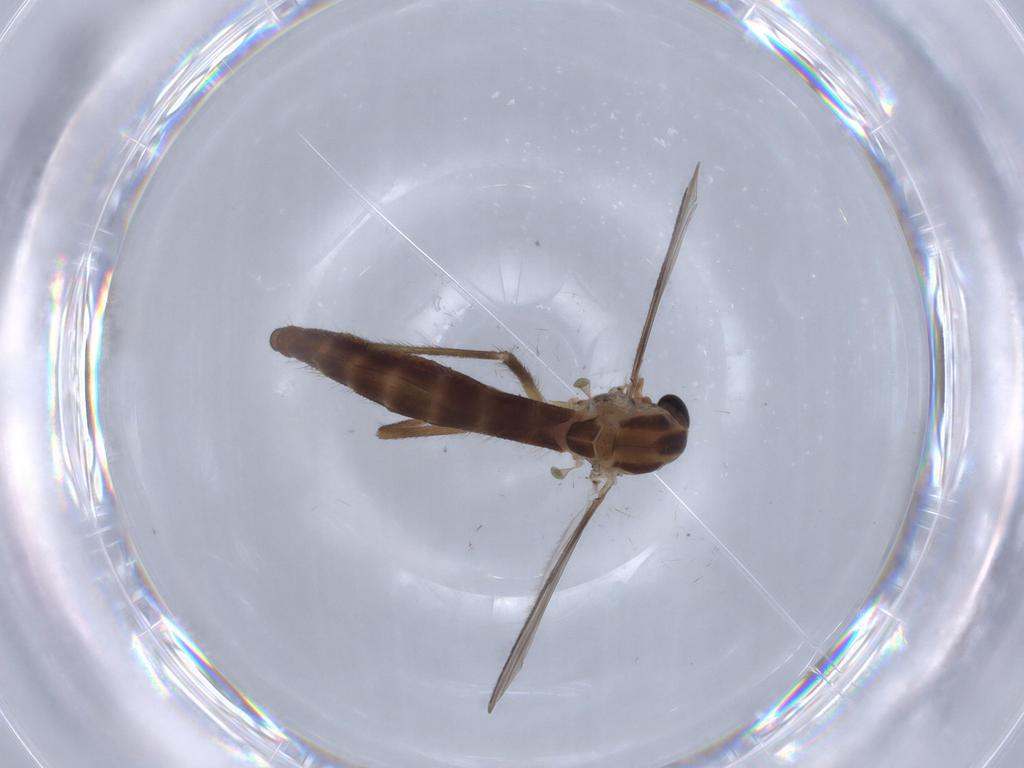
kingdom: Animalia
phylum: Arthropoda
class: Insecta
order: Diptera
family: Chironomidae
